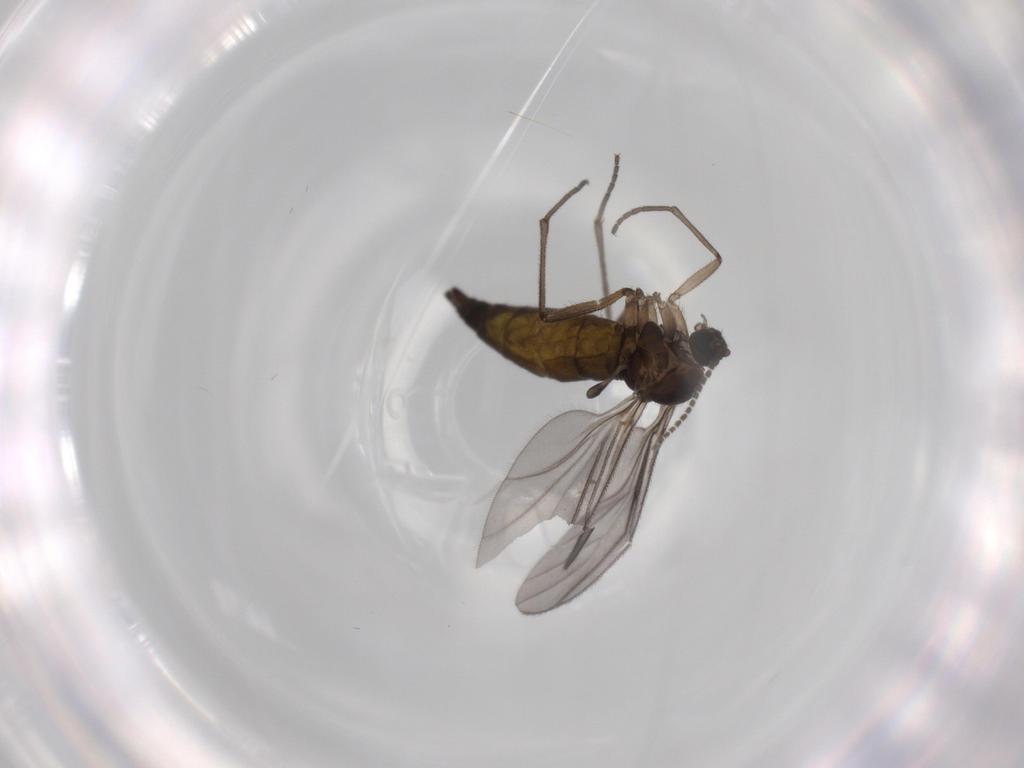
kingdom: Animalia
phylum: Arthropoda
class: Insecta
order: Diptera
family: Sciaridae
